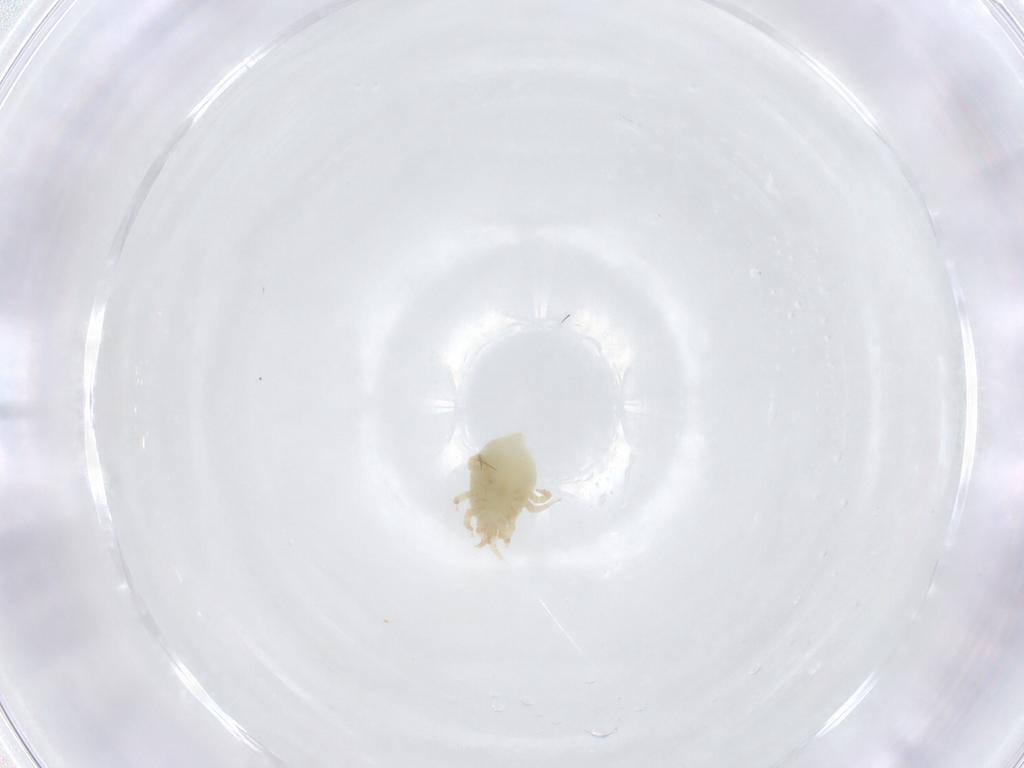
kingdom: Animalia
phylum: Arthropoda
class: Arachnida
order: Mesostigmata
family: Melicharidae
